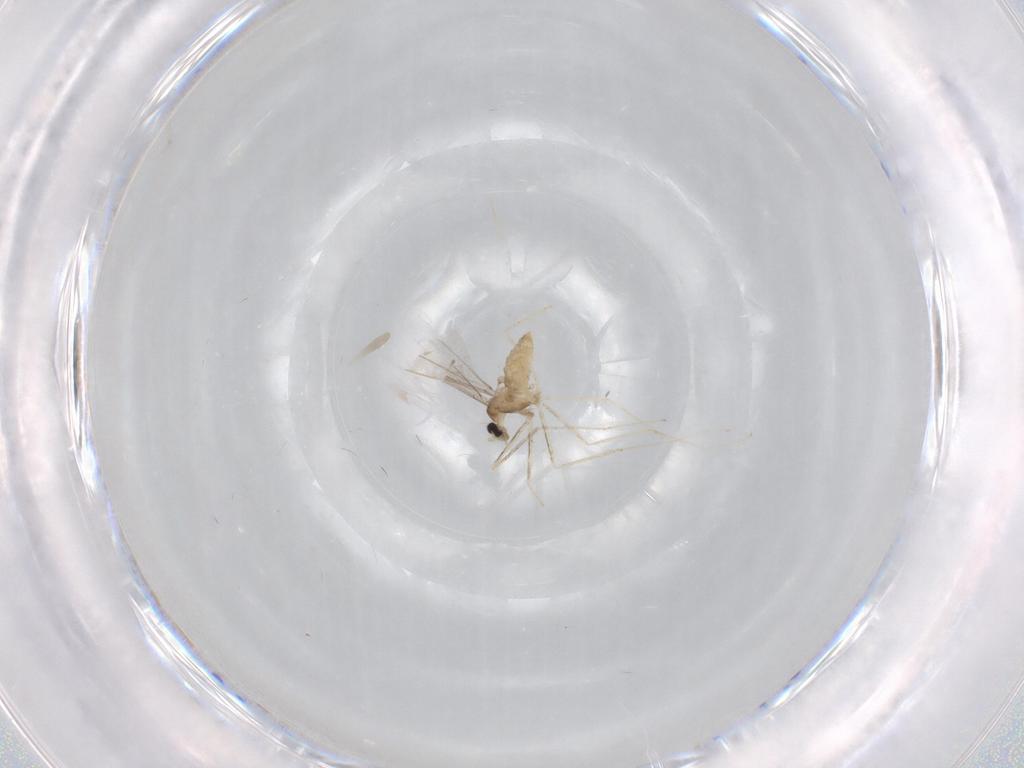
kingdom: Animalia
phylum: Arthropoda
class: Insecta
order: Diptera
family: Cecidomyiidae
